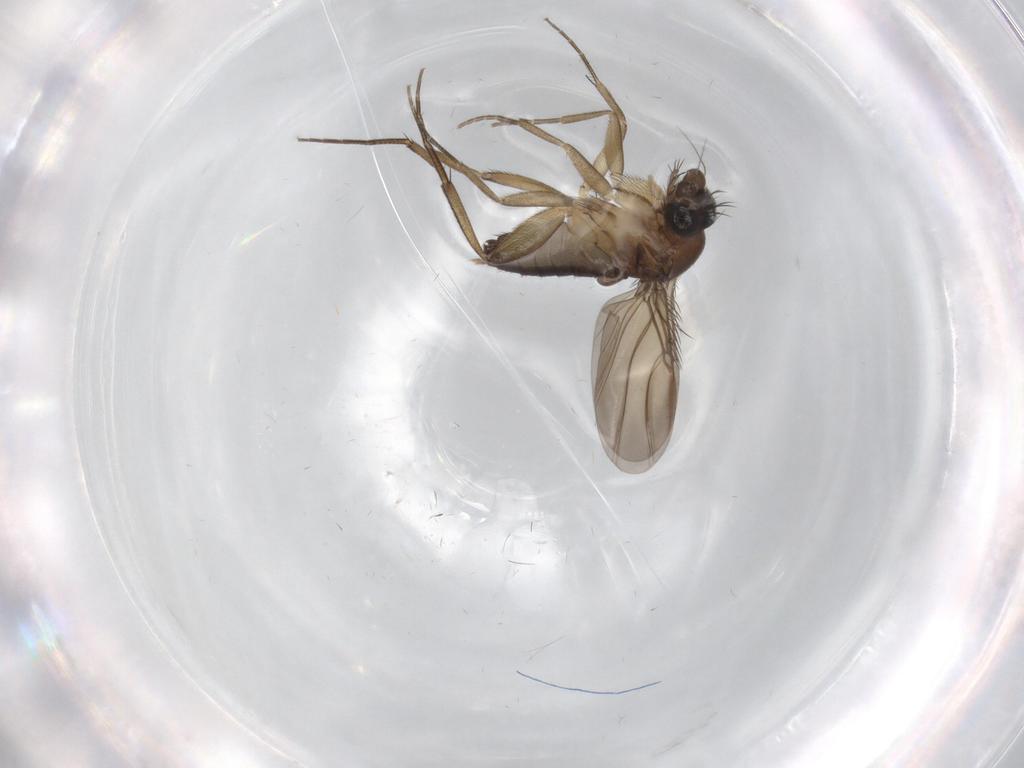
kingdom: Animalia
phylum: Arthropoda
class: Insecta
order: Diptera
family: Phoridae
